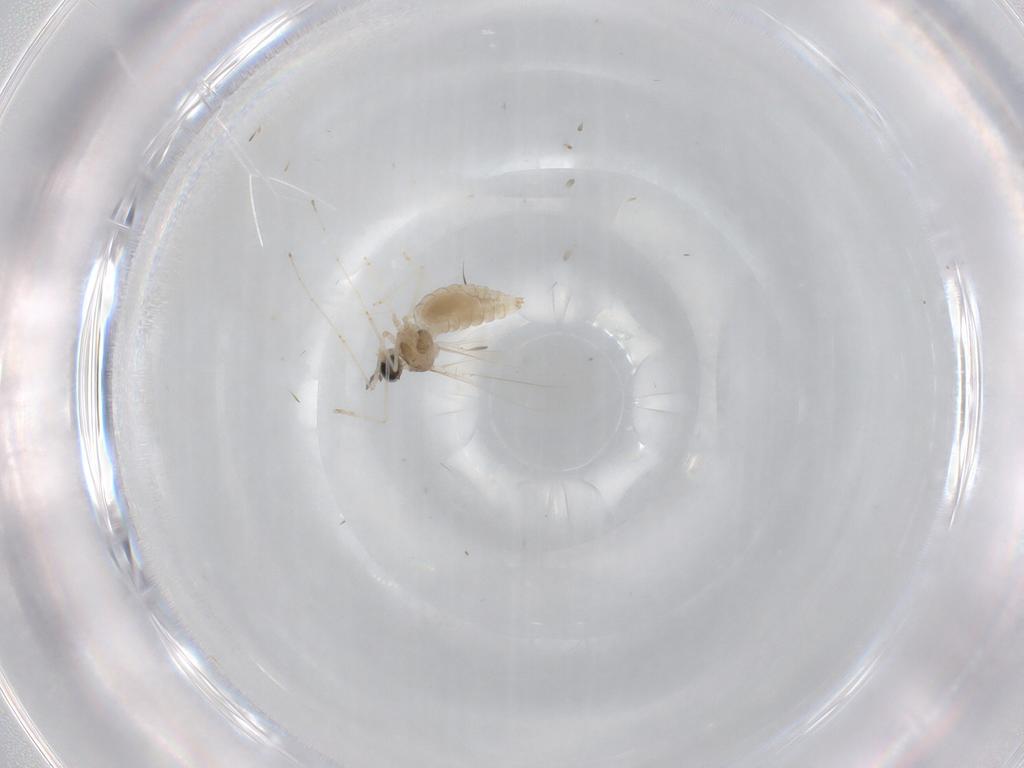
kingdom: Animalia
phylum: Arthropoda
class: Insecta
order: Diptera
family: Cecidomyiidae
